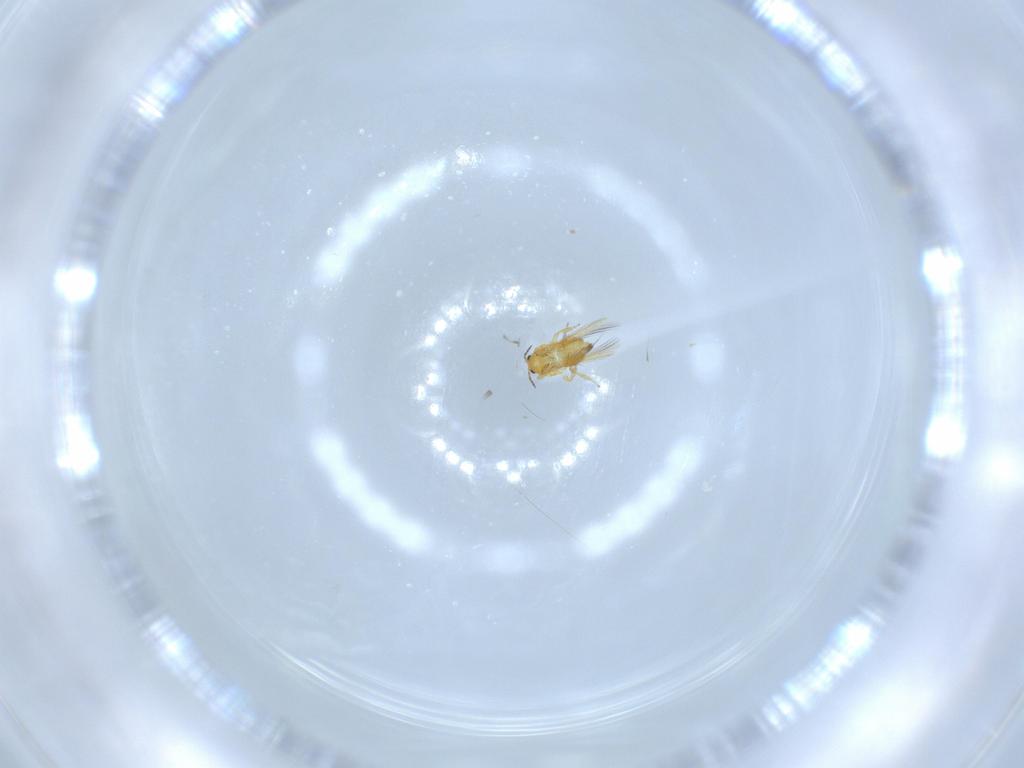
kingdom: Animalia
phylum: Arthropoda
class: Insecta
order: Thysanoptera
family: Thripidae
